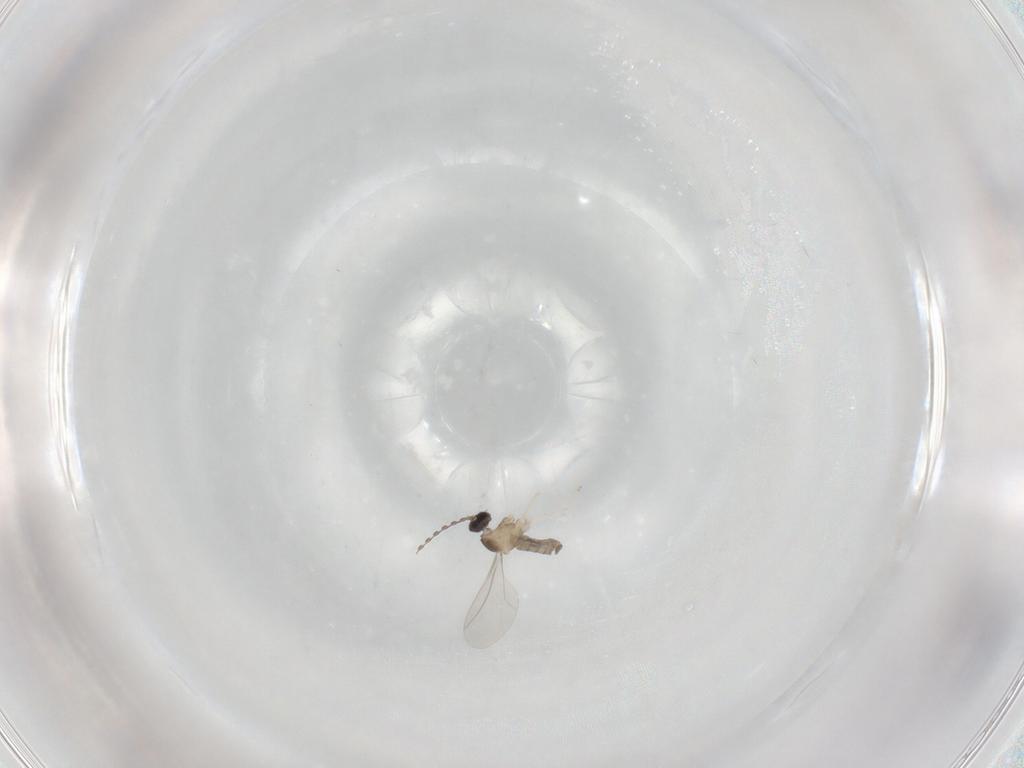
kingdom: Animalia
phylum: Arthropoda
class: Insecta
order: Diptera
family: Cecidomyiidae
